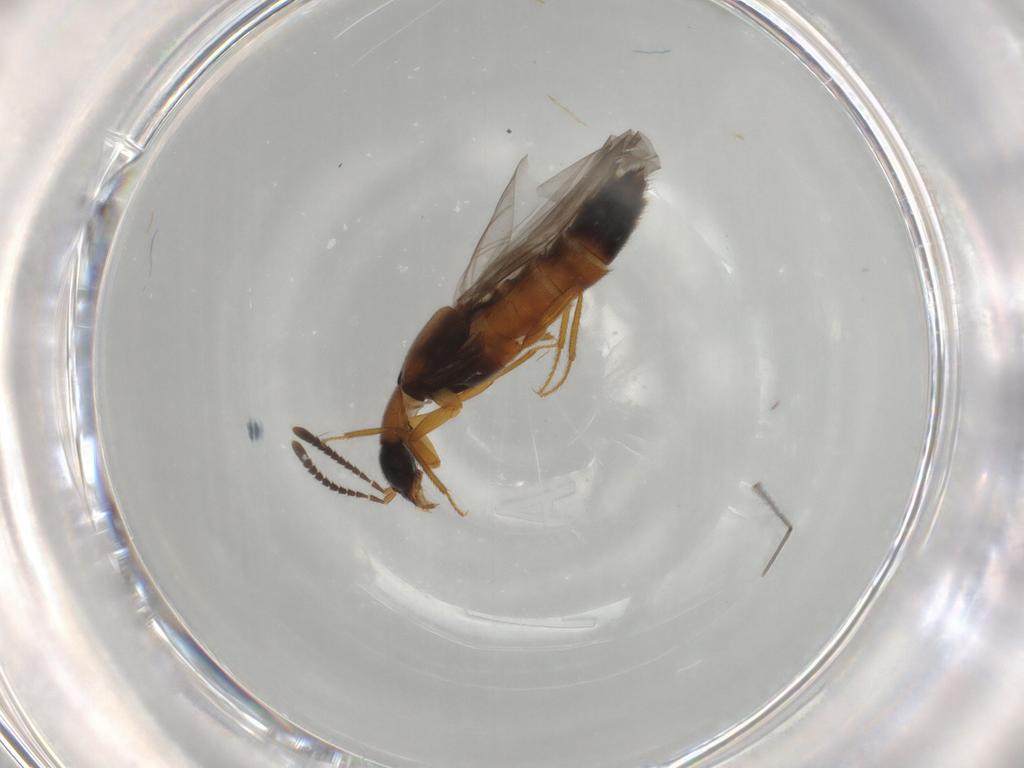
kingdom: Animalia
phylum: Arthropoda
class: Insecta
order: Coleoptera
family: Staphylinidae
